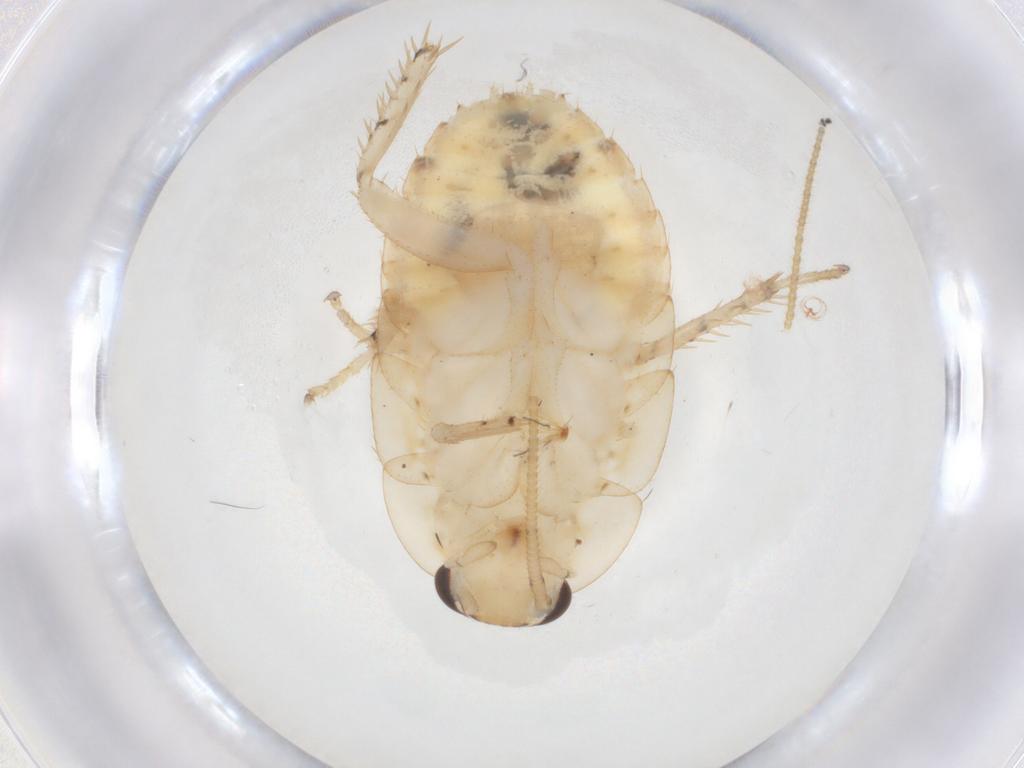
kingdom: Animalia
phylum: Arthropoda
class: Insecta
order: Blattodea
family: Ectobiidae
